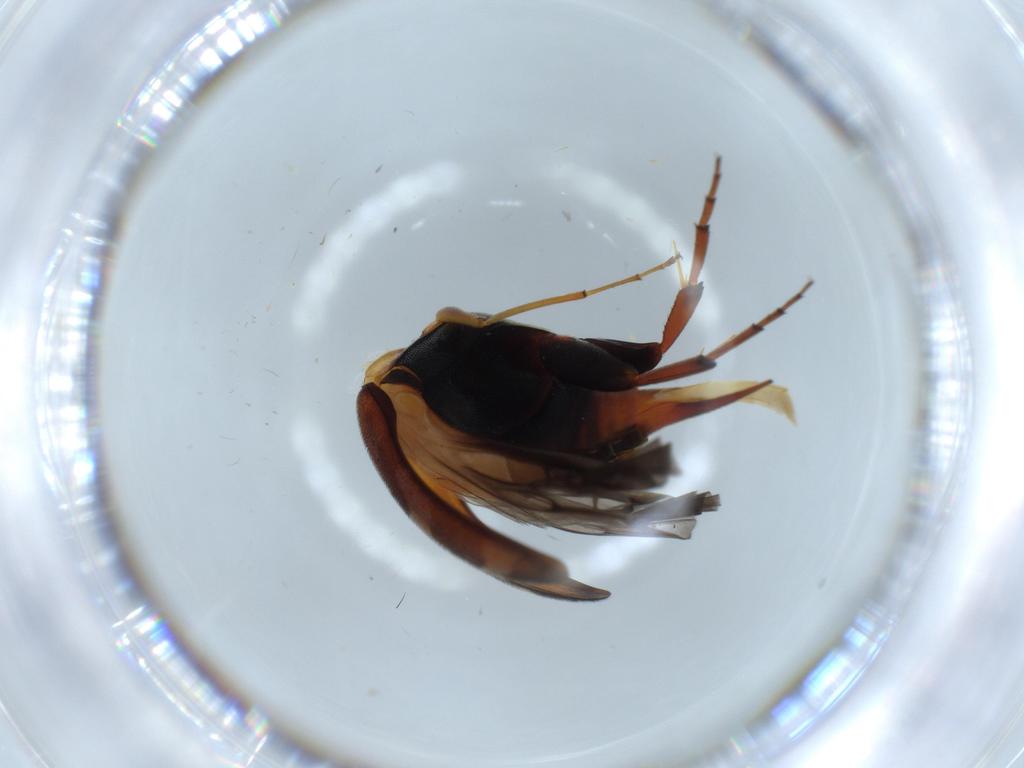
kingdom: Animalia
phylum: Arthropoda
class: Insecta
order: Coleoptera
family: Mordellidae
